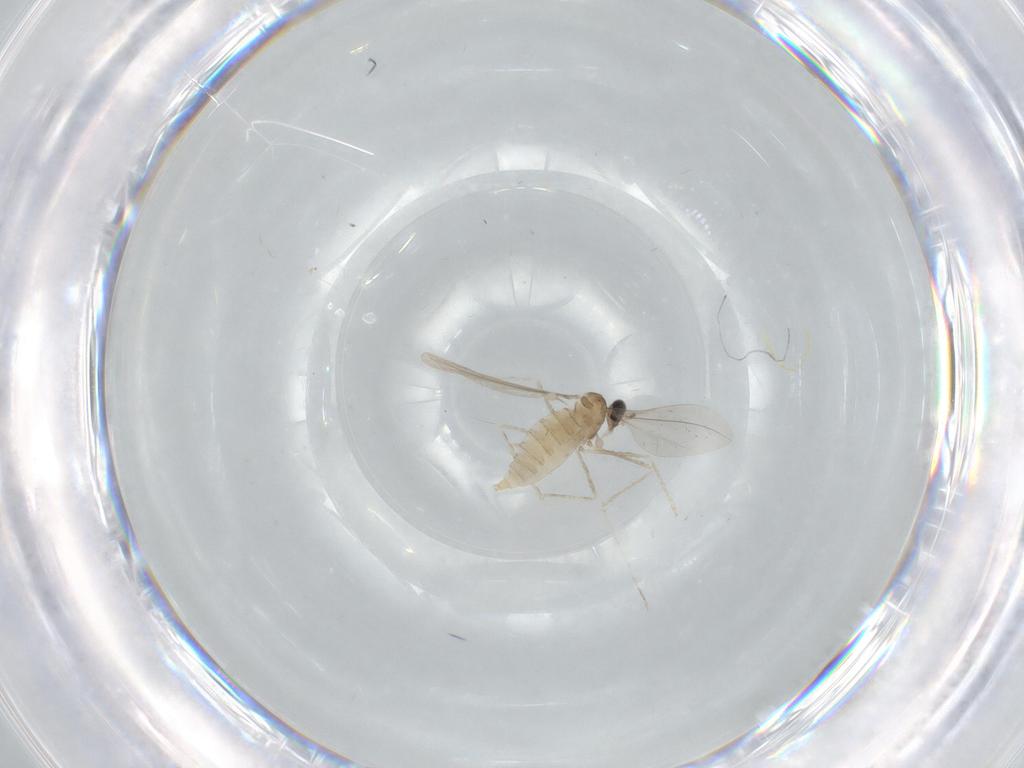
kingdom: Animalia
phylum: Arthropoda
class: Insecta
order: Diptera
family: Cecidomyiidae
